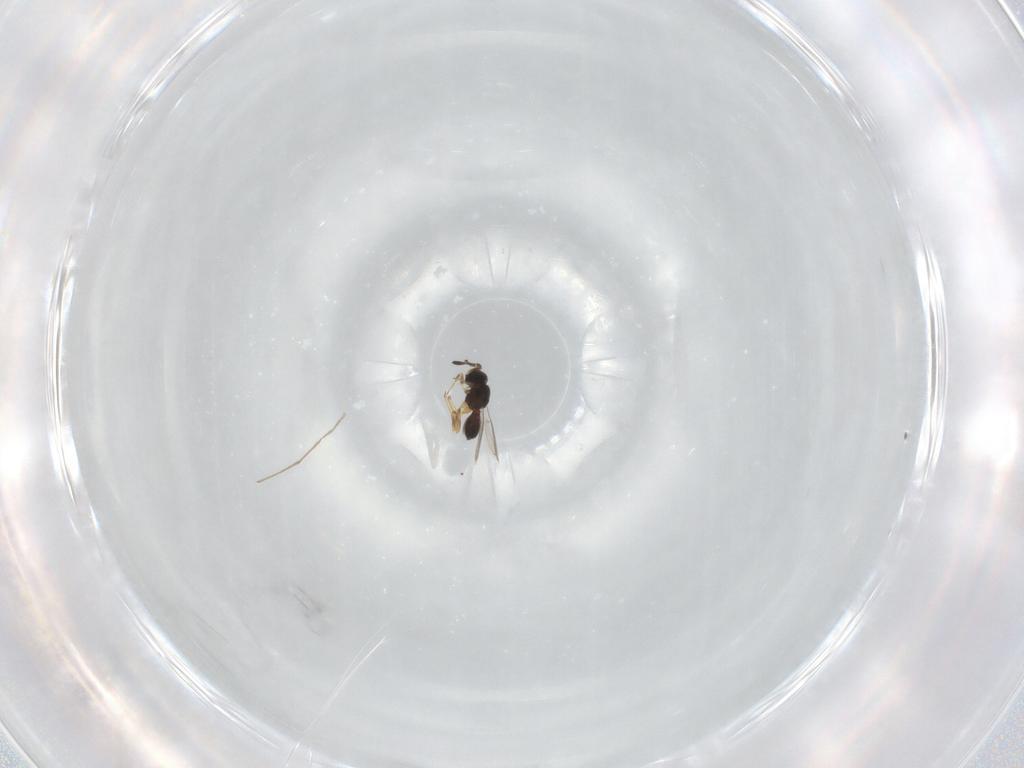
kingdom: Animalia
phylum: Arthropoda
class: Insecta
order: Hymenoptera
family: Scelionidae
